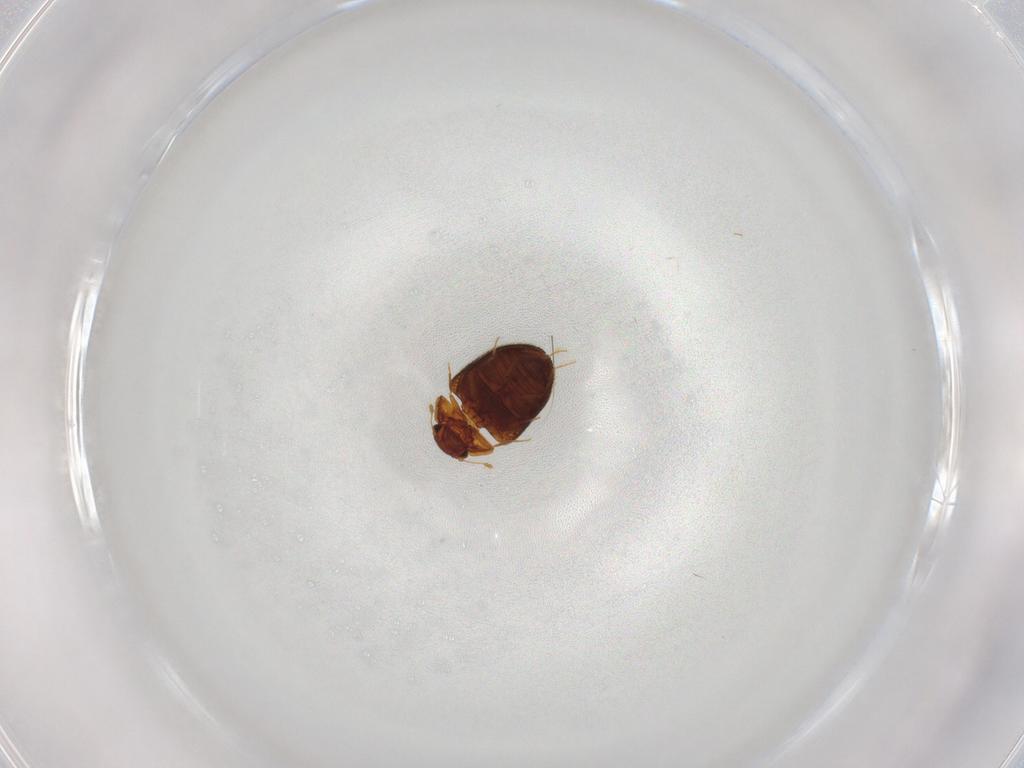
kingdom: Animalia
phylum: Arthropoda
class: Insecta
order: Coleoptera
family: Clambidae
